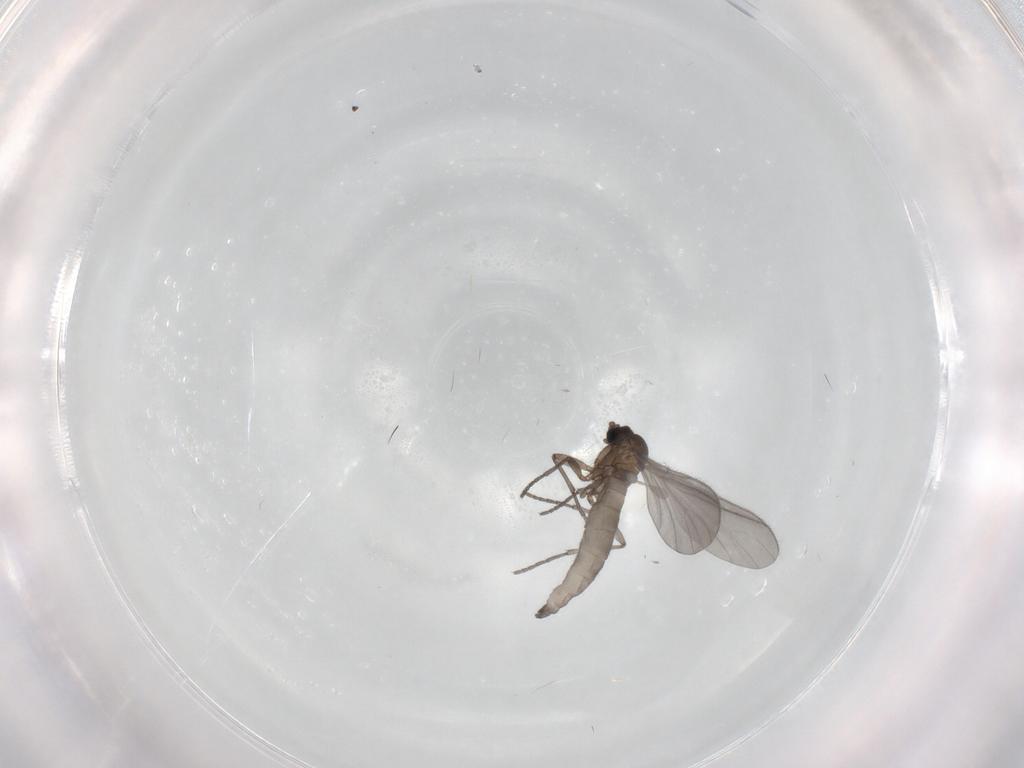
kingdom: Animalia
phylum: Arthropoda
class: Insecta
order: Diptera
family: Sciaridae
